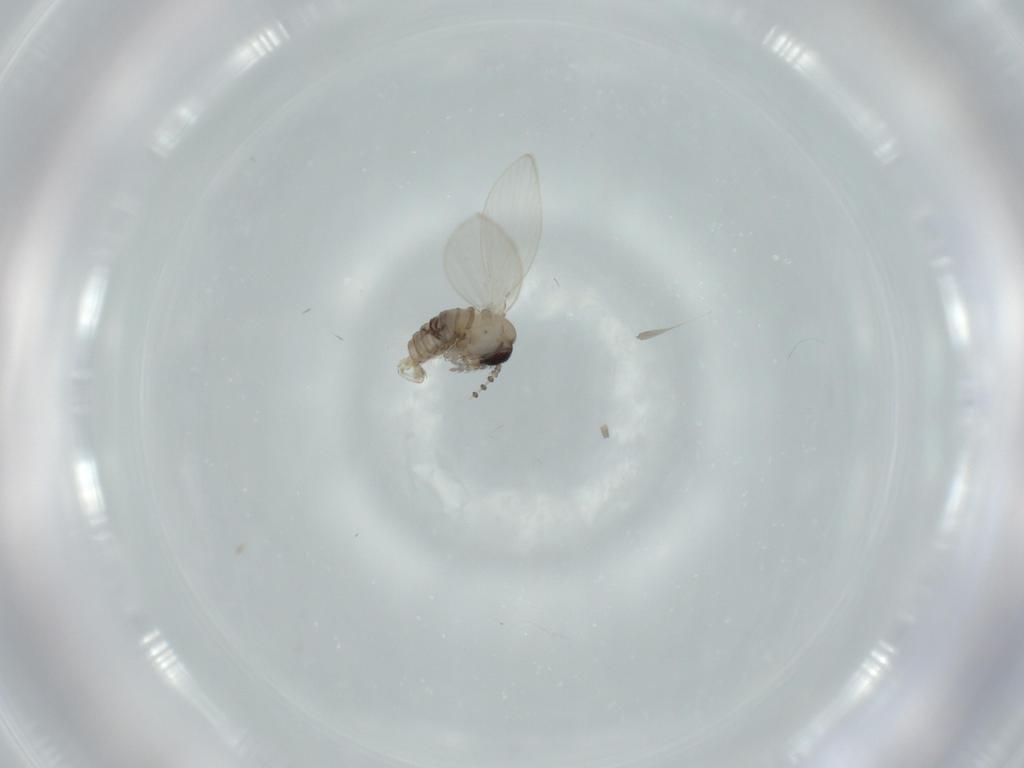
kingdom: Animalia
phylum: Arthropoda
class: Insecta
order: Diptera
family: Psychodidae
